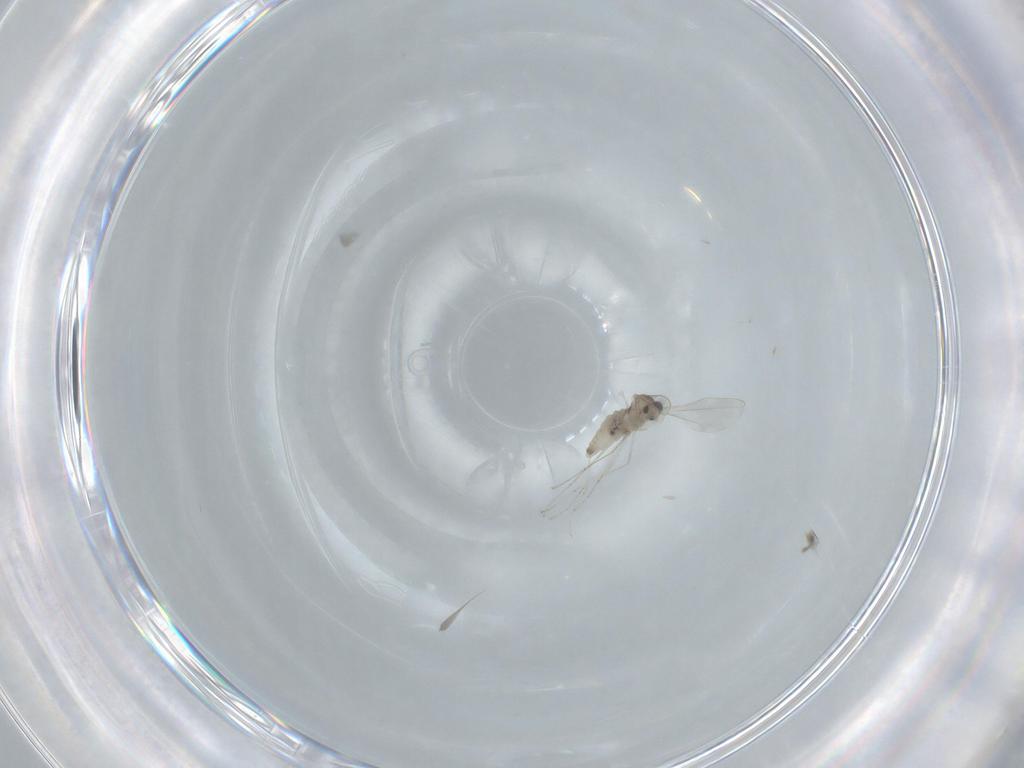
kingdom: Animalia
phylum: Arthropoda
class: Insecta
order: Diptera
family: Cecidomyiidae
